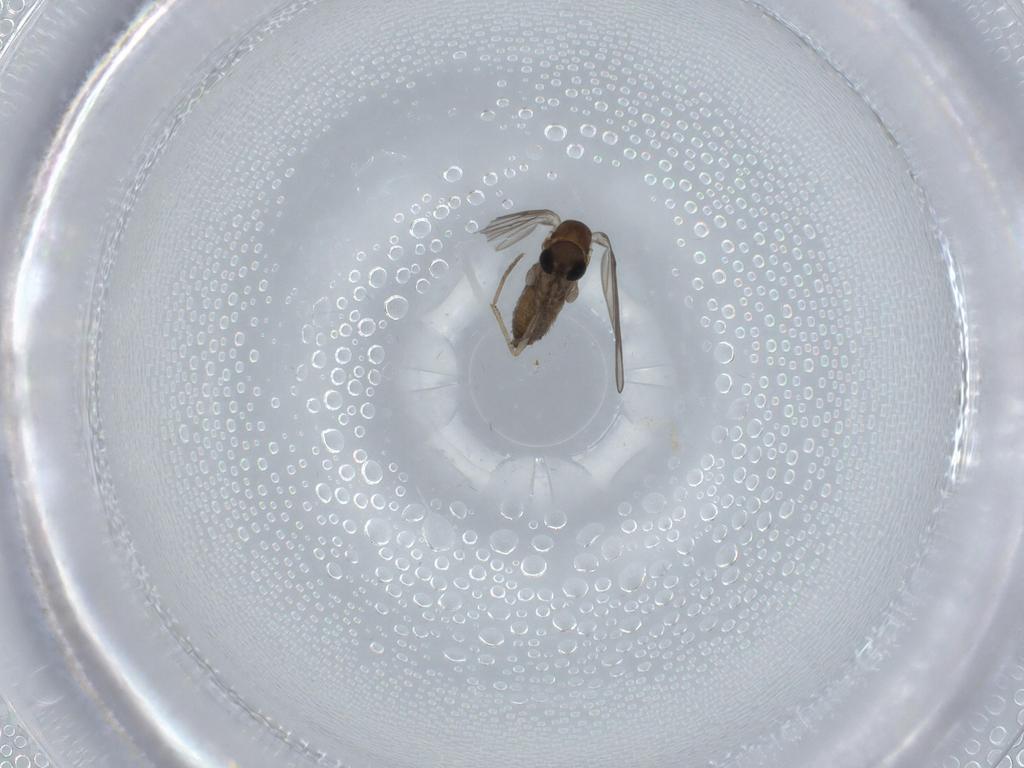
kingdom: Animalia
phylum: Arthropoda
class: Insecta
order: Diptera
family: Psychodidae
